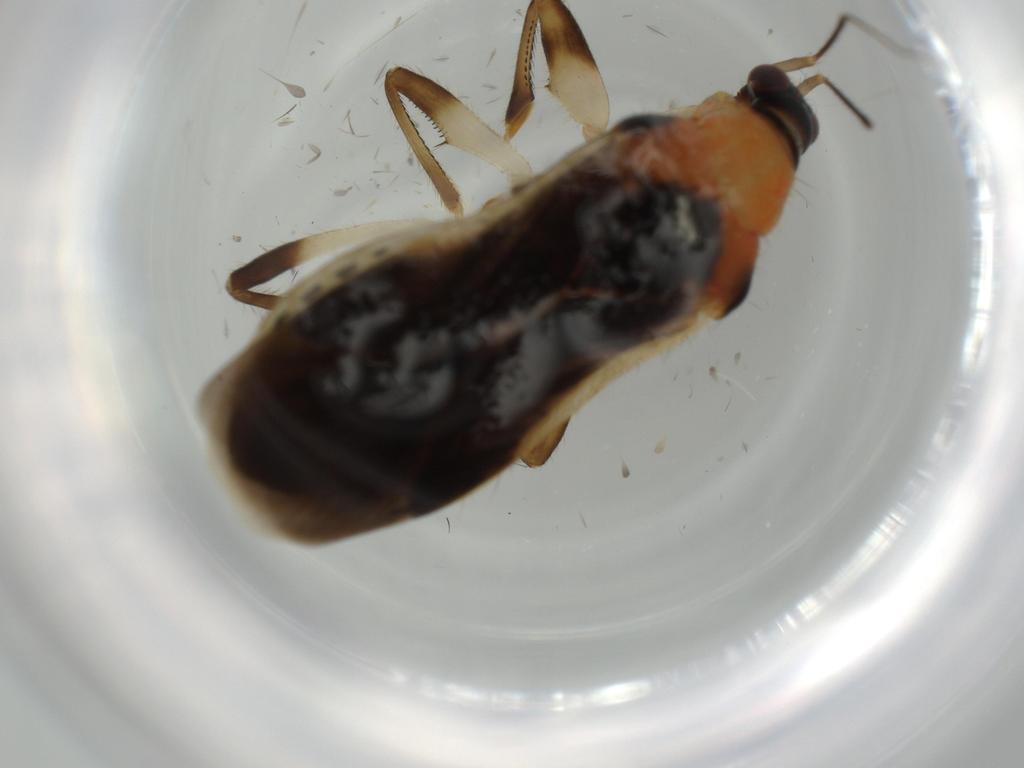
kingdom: Animalia
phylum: Arthropoda
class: Insecta
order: Hemiptera
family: Nabidae
